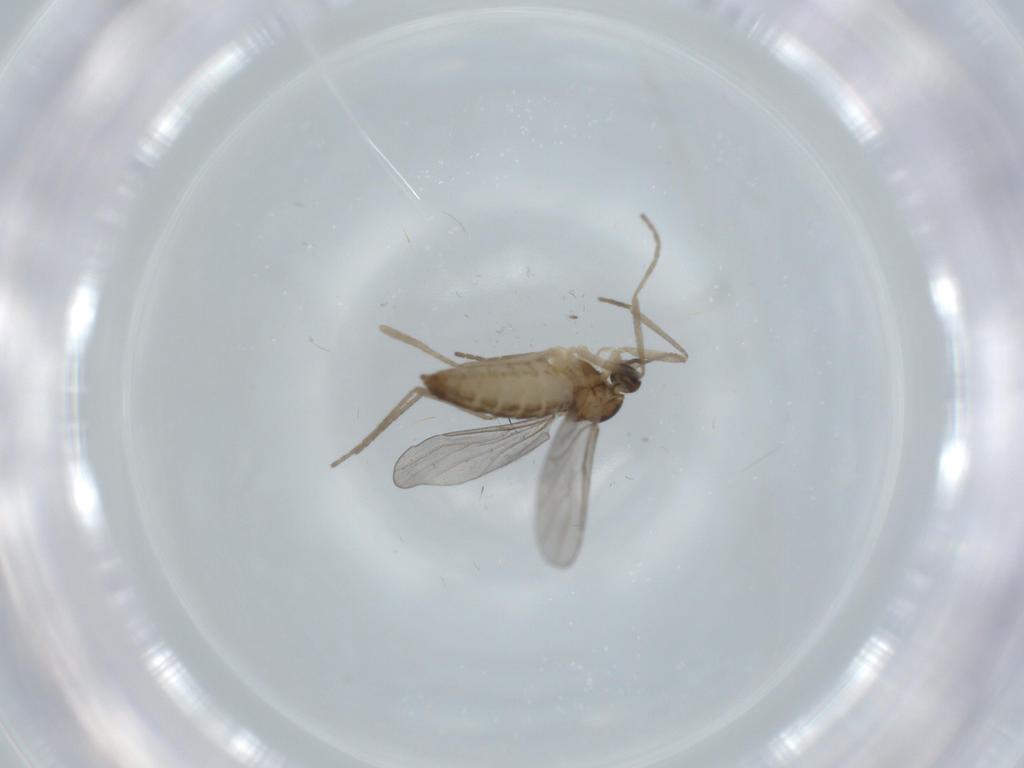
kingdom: Animalia
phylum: Arthropoda
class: Insecta
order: Diptera
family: Cecidomyiidae
